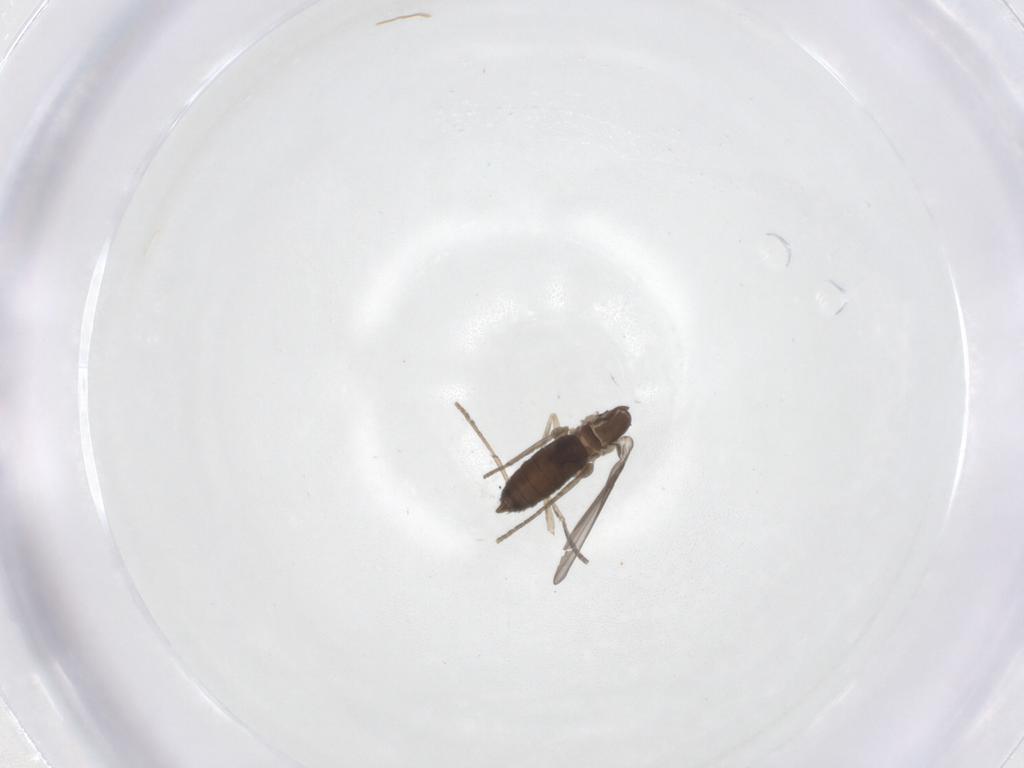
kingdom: Animalia
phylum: Arthropoda
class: Insecta
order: Diptera
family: Psychodidae
